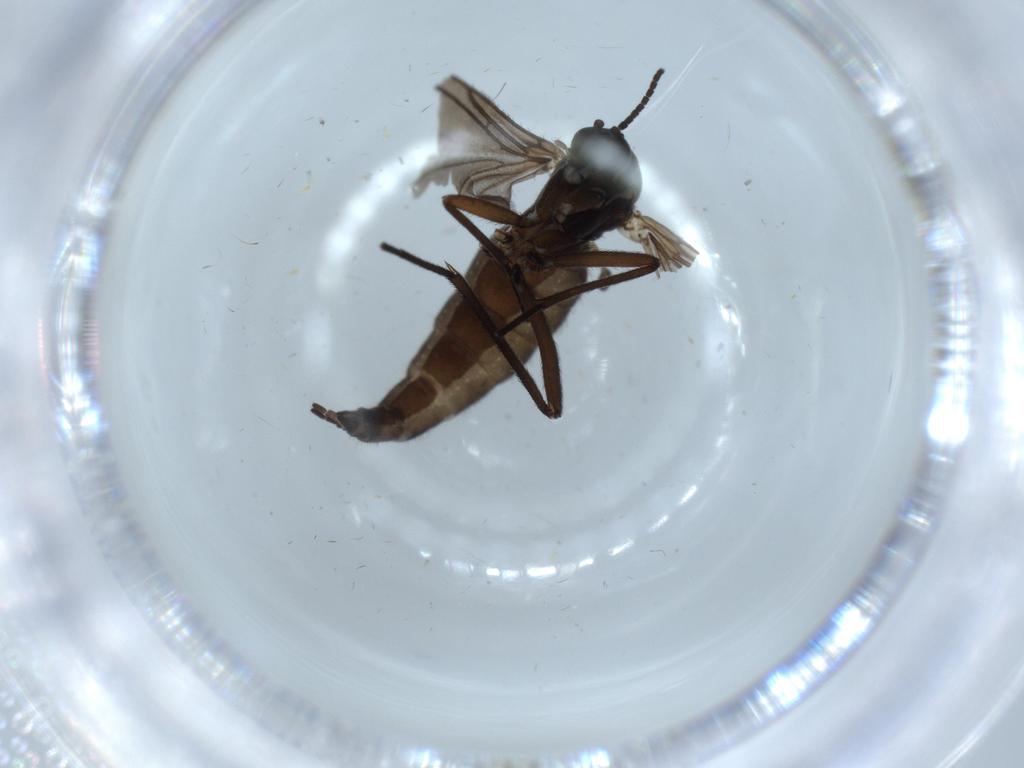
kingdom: Animalia
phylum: Arthropoda
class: Insecta
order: Diptera
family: Sciaridae
